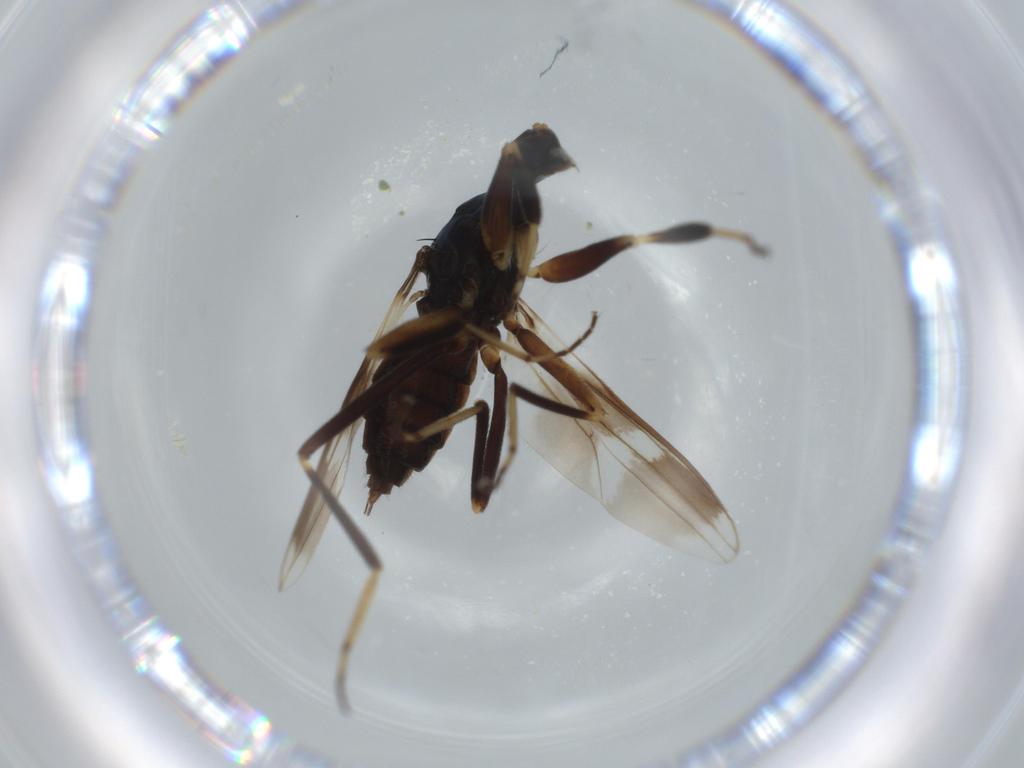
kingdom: Animalia
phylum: Arthropoda
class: Insecta
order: Diptera
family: Hybotidae
